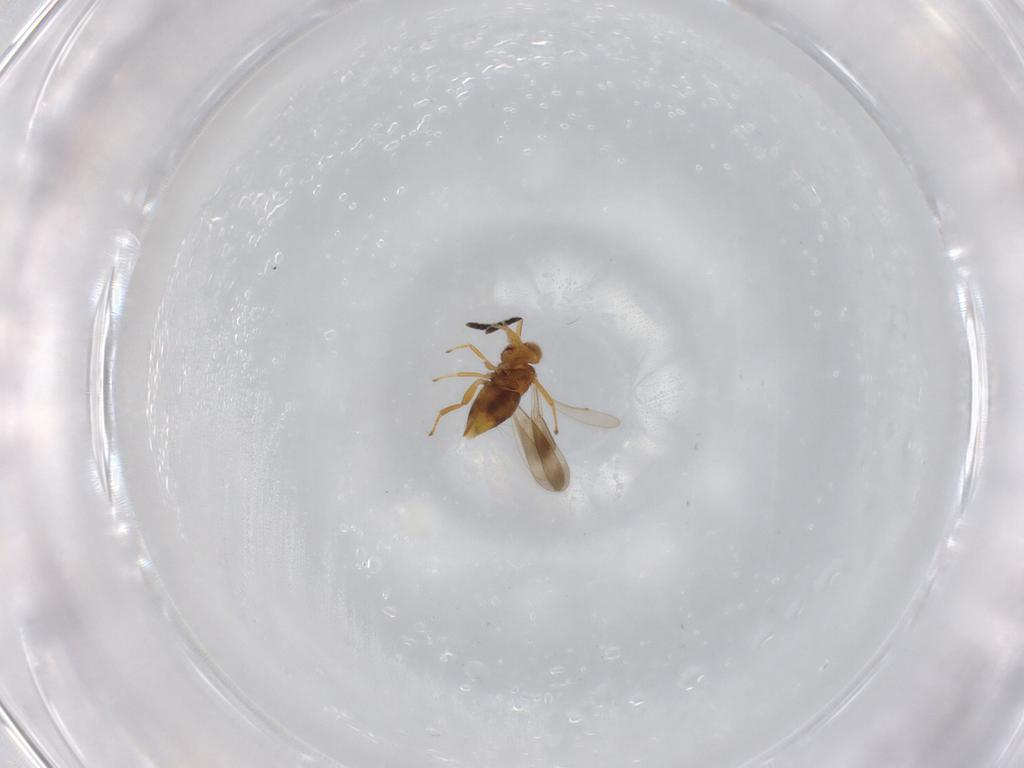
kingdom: Animalia
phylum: Arthropoda
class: Insecta
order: Hymenoptera
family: Aphelinidae
